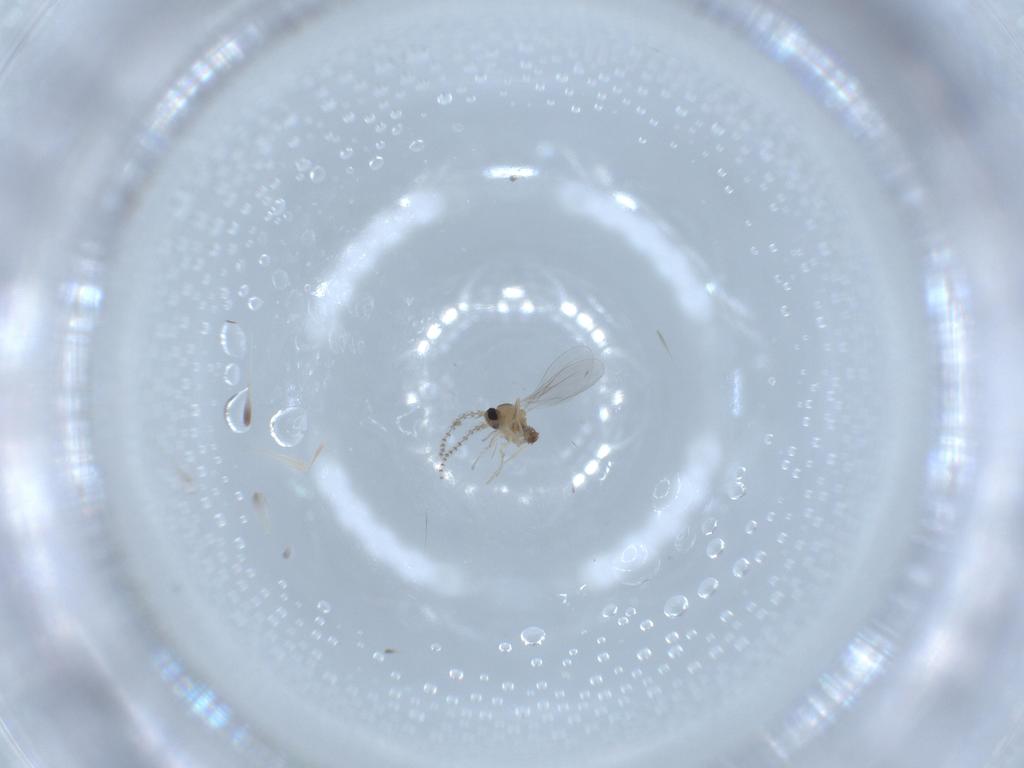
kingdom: Animalia
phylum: Arthropoda
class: Insecta
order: Diptera
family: Cecidomyiidae
